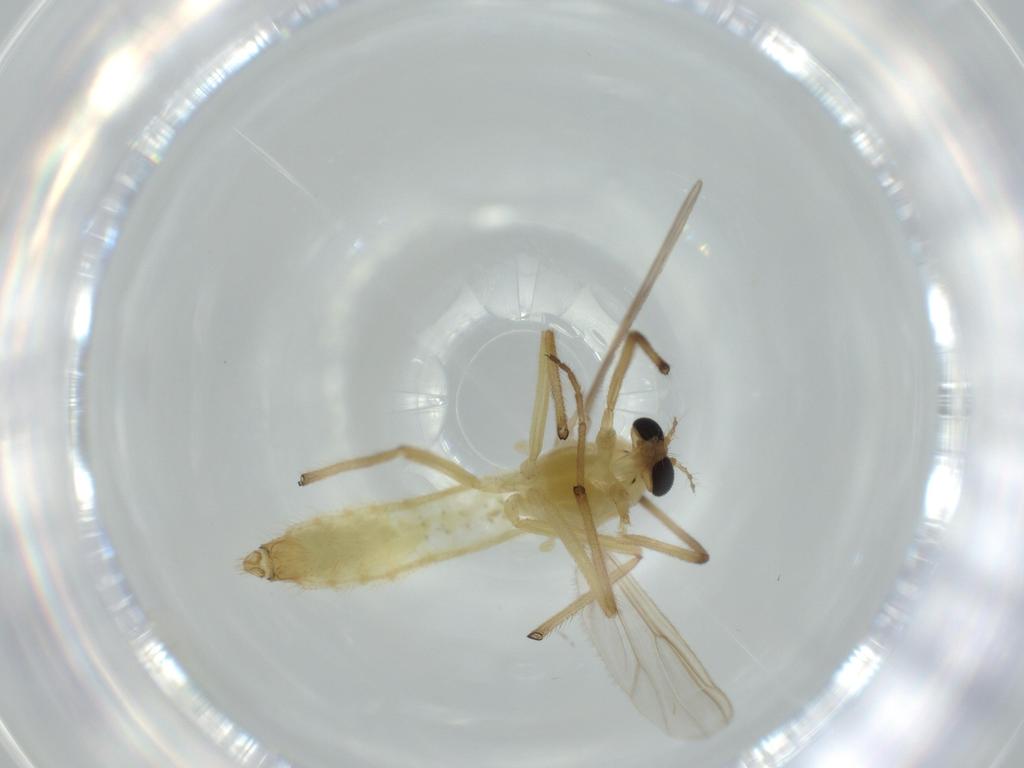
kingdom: Animalia
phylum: Arthropoda
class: Insecta
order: Diptera
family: Chironomidae
